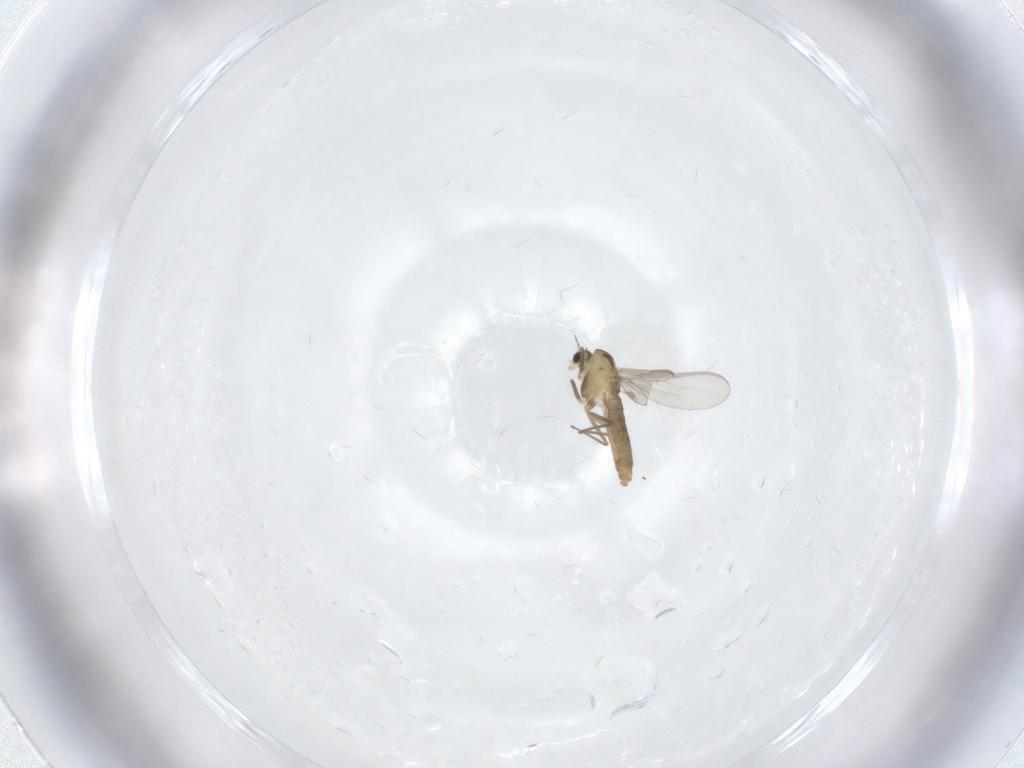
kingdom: Animalia
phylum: Arthropoda
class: Insecta
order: Diptera
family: Chironomidae
